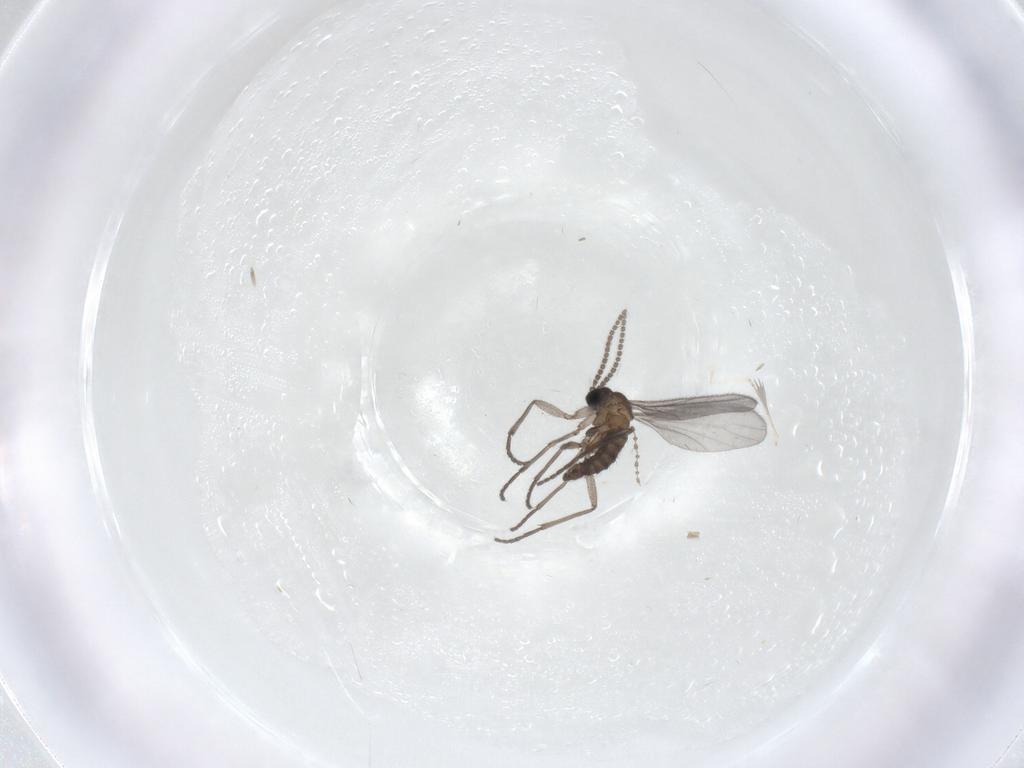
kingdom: Animalia
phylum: Arthropoda
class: Insecta
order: Diptera
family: Sciaridae
